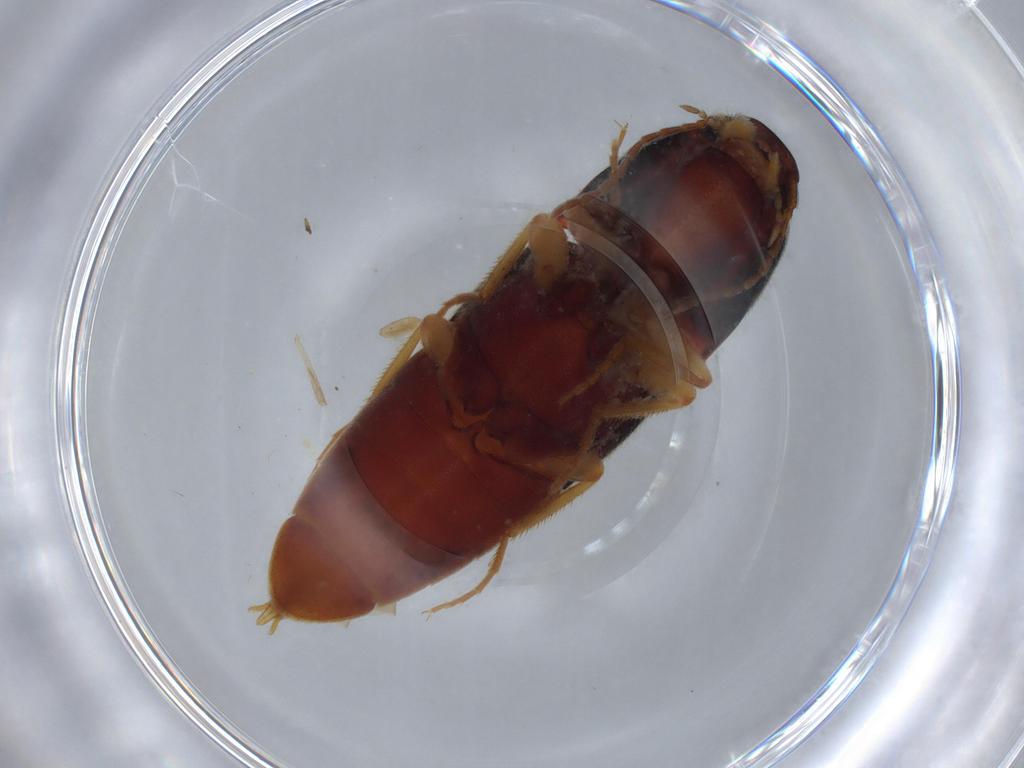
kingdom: Animalia
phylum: Arthropoda
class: Insecta
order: Coleoptera
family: Elateridae
